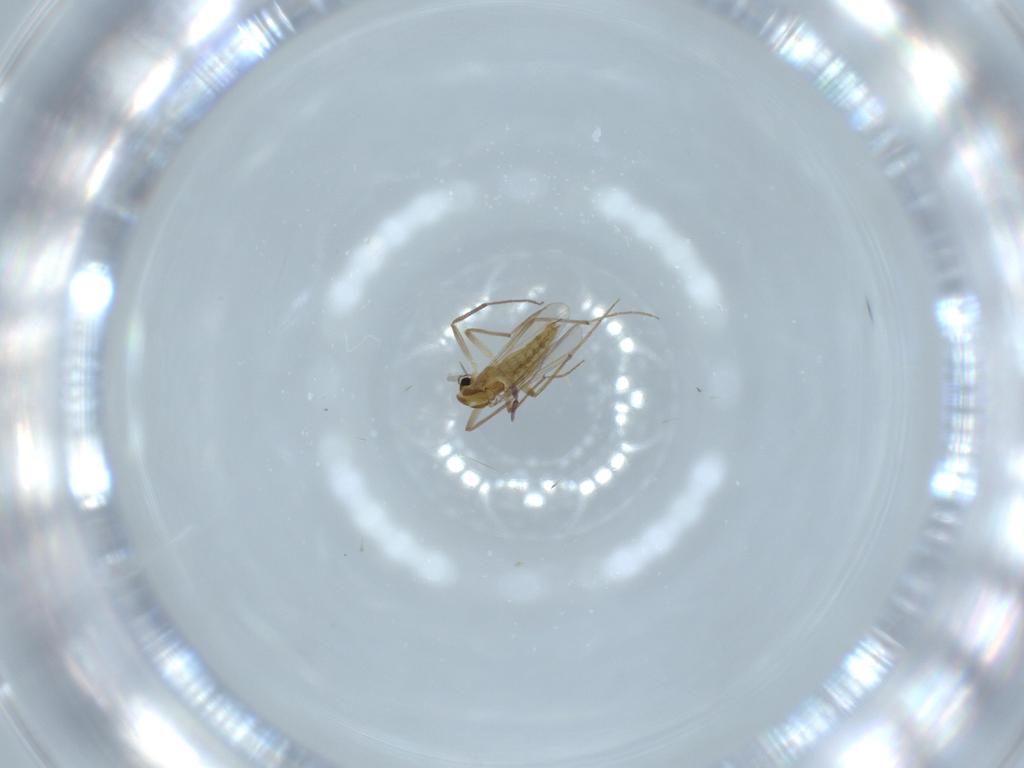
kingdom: Animalia
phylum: Arthropoda
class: Insecta
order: Diptera
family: Chironomidae
